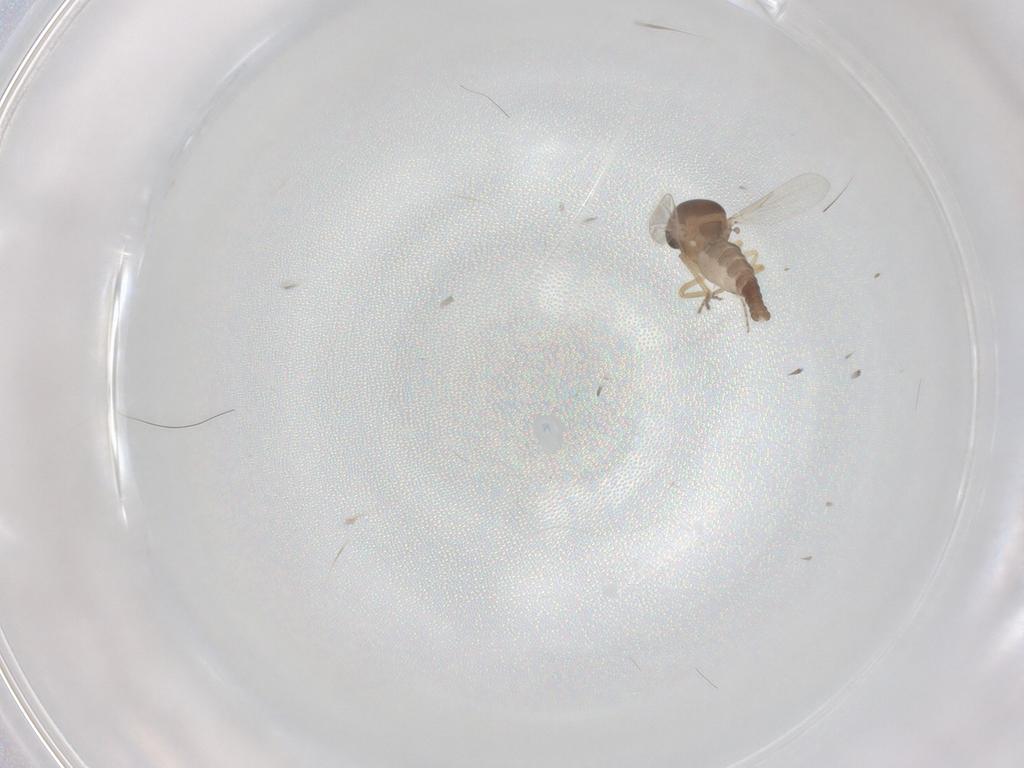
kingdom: Animalia
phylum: Arthropoda
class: Insecta
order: Diptera
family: Ceratopogonidae
